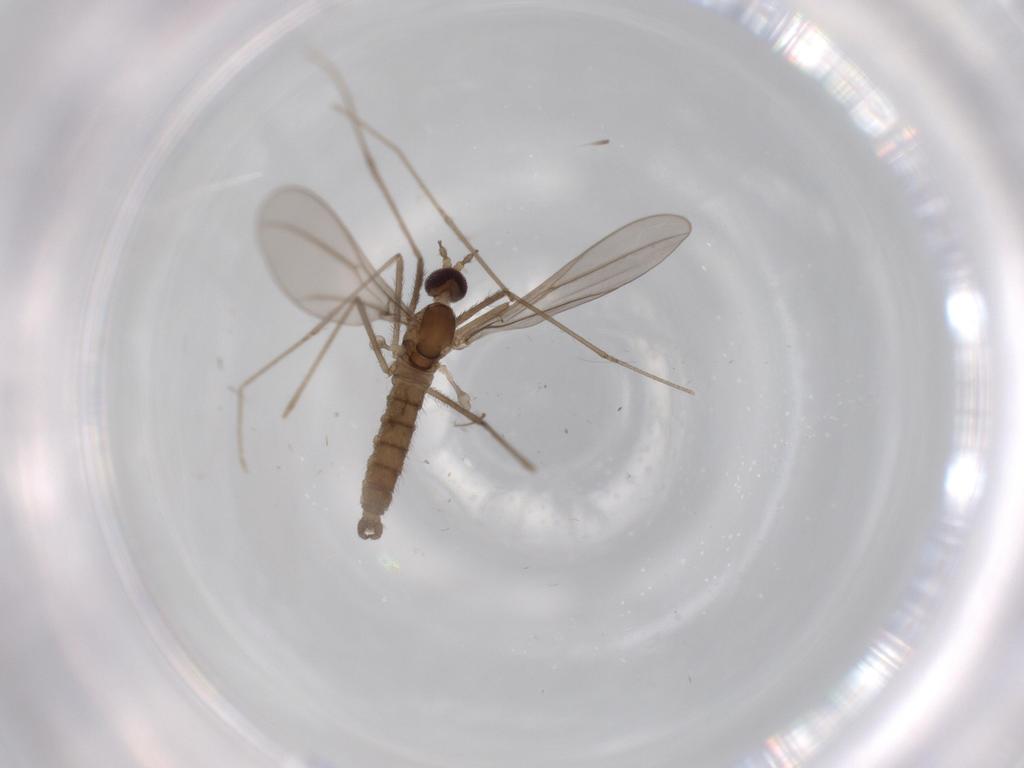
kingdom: Animalia
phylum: Arthropoda
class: Insecta
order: Diptera
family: Cecidomyiidae
